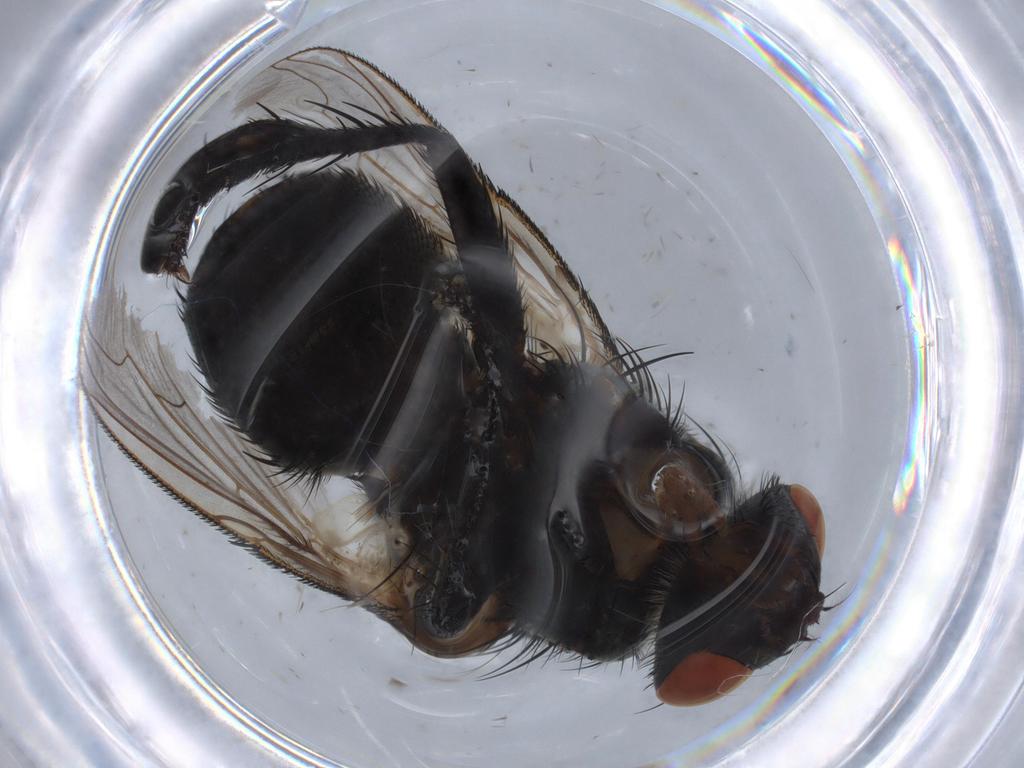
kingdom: Animalia
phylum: Arthropoda
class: Insecta
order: Diptera
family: Sarcophagidae
